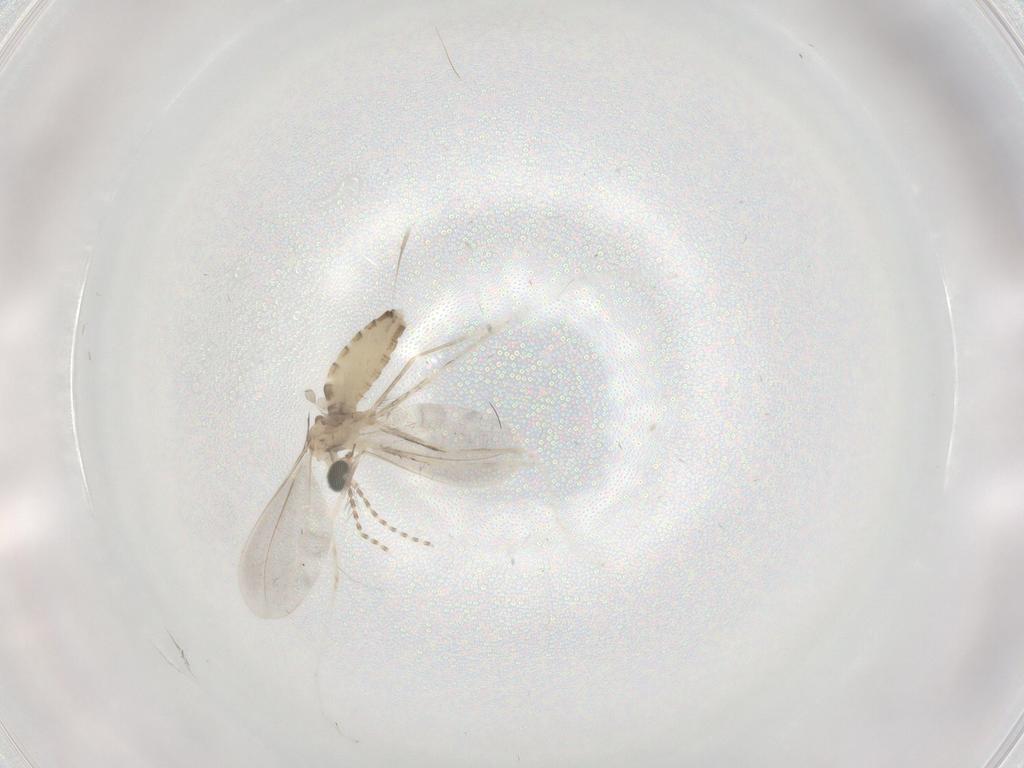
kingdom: Animalia
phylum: Arthropoda
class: Insecta
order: Diptera
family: Cecidomyiidae
